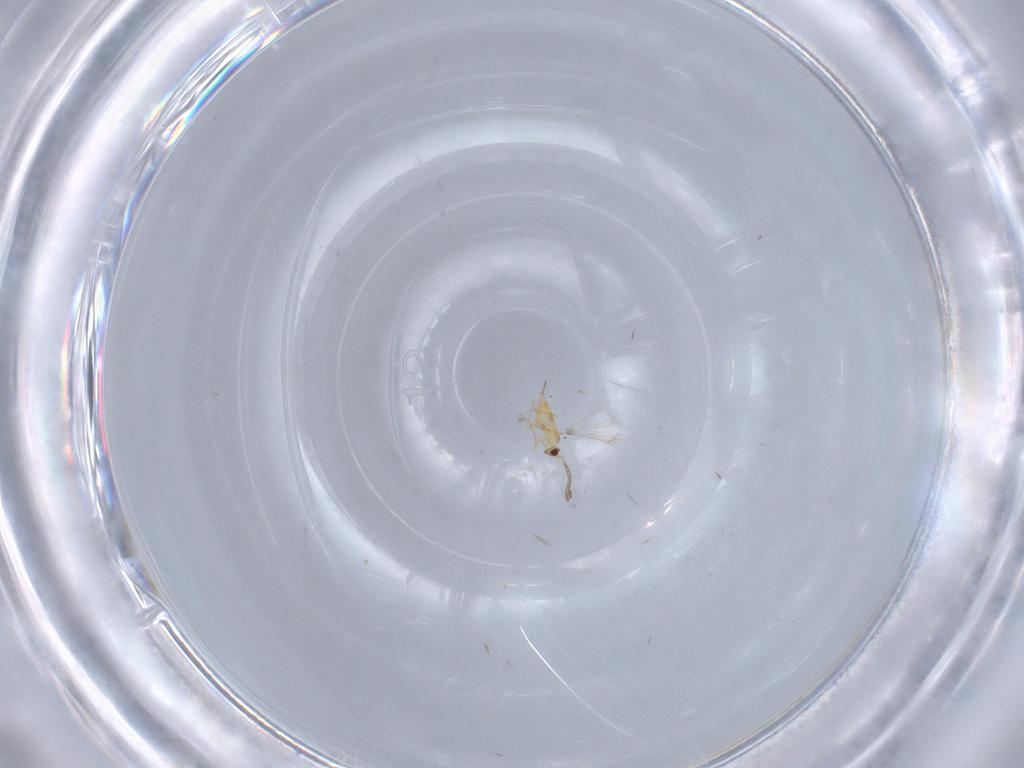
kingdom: Animalia
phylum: Arthropoda
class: Insecta
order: Hymenoptera
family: Mymaridae
